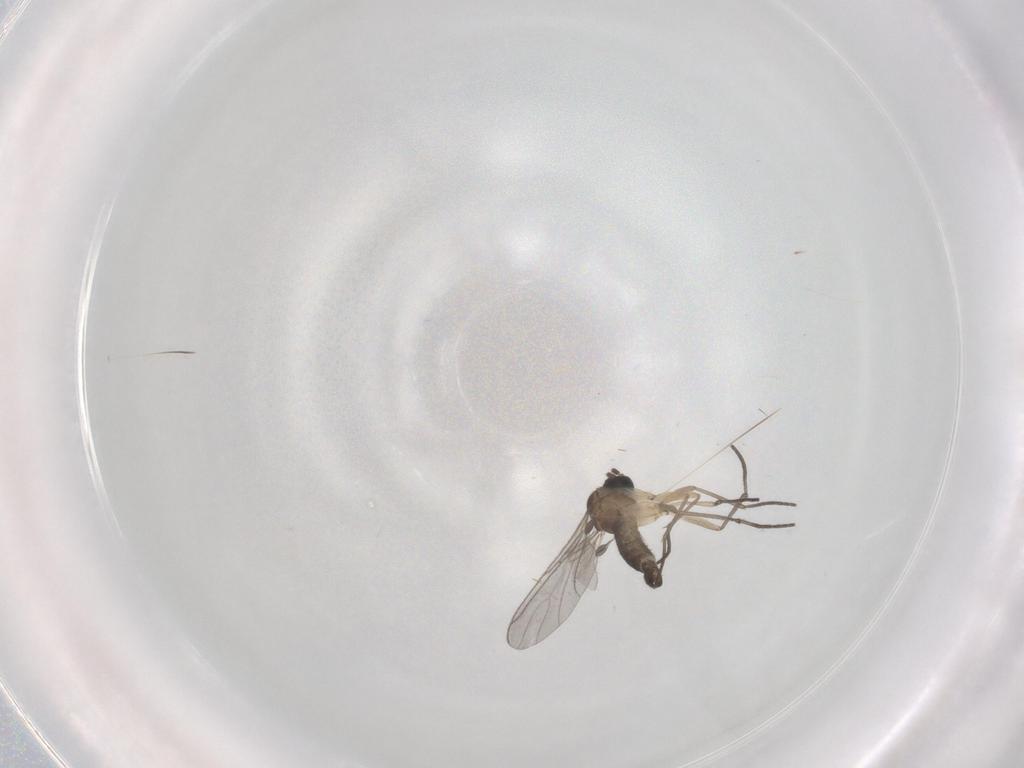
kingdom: Animalia
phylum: Arthropoda
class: Insecta
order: Diptera
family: Sciaridae
